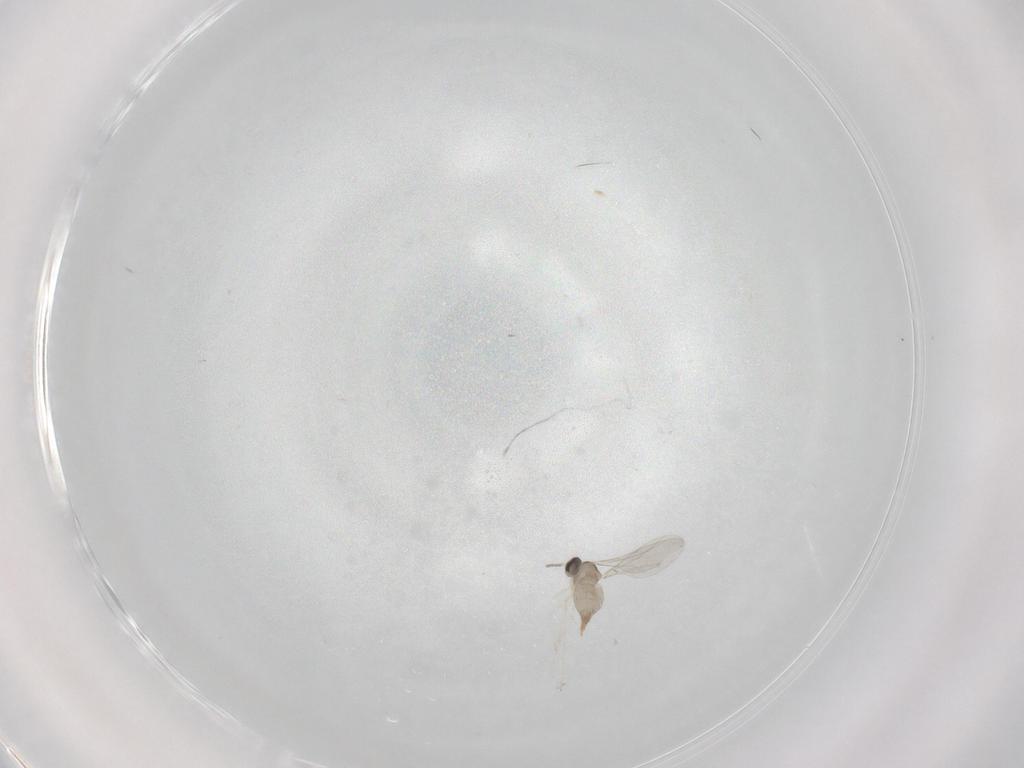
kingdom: Animalia
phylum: Arthropoda
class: Insecta
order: Diptera
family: Cecidomyiidae
